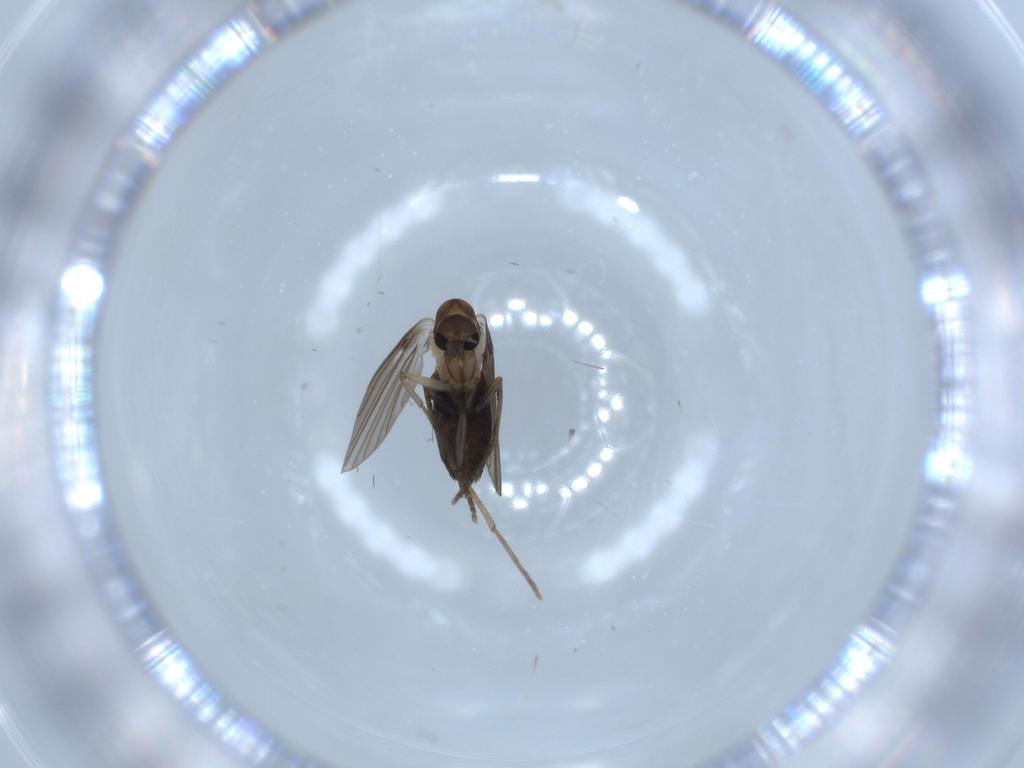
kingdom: Animalia
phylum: Arthropoda
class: Insecta
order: Diptera
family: Psychodidae
